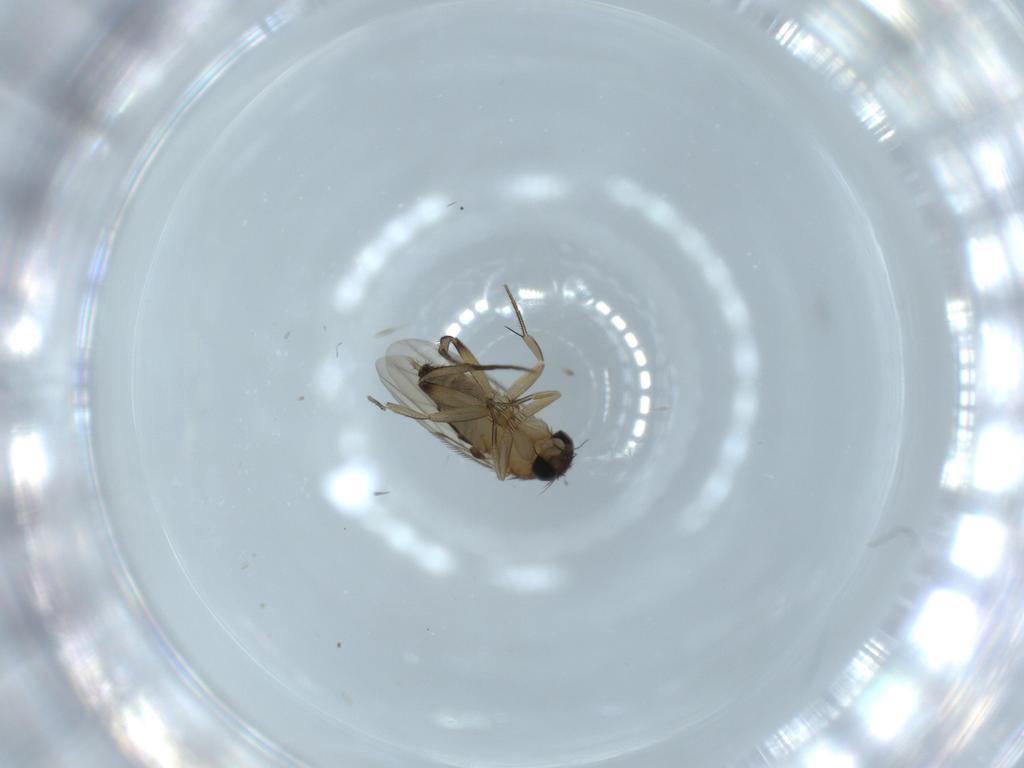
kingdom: Animalia
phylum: Arthropoda
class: Insecta
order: Diptera
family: Phoridae
